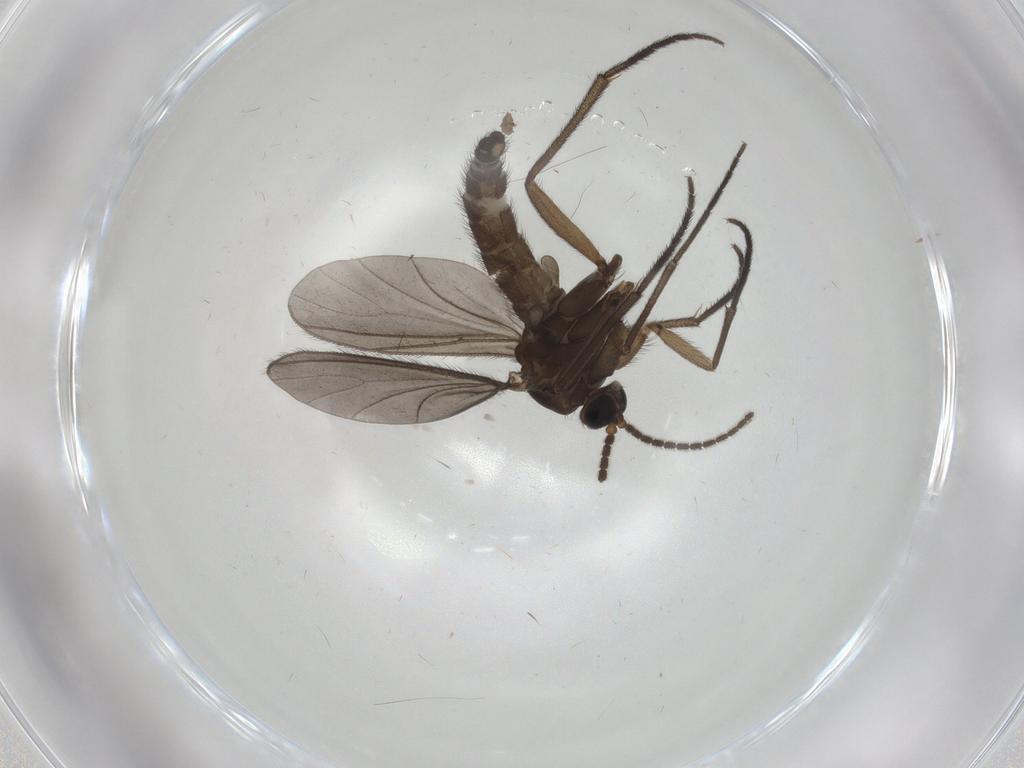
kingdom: Animalia
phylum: Arthropoda
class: Insecta
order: Diptera
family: Sciaridae
